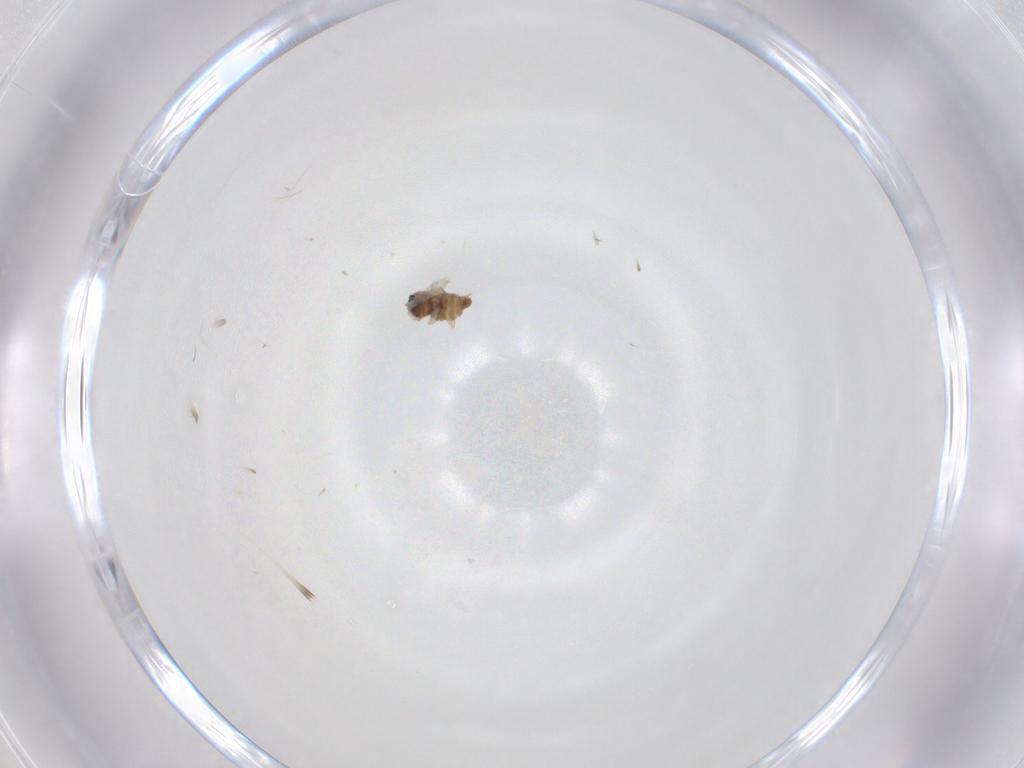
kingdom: Animalia
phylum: Arthropoda
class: Insecta
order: Diptera
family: Cecidomyiidae
